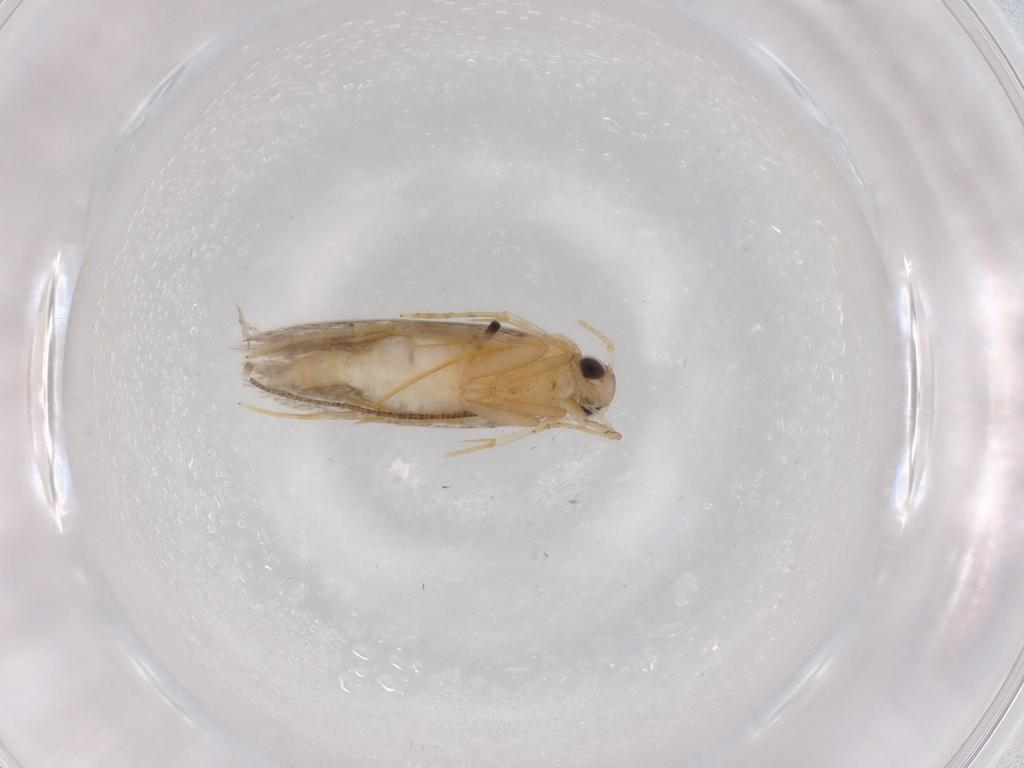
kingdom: Animalia
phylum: Arthropoda
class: Insecta
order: Lepidoptera
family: Autostichidae
